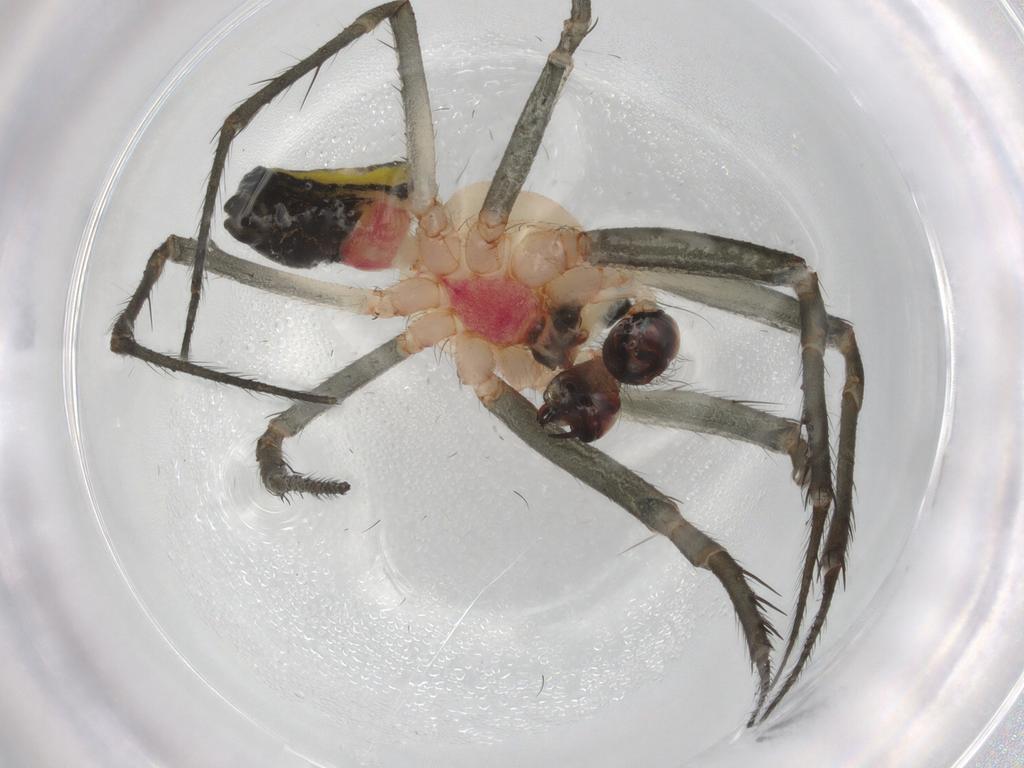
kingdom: Animalia
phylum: Arthropoda
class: Arachnida
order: Araneae
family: Araneidae
